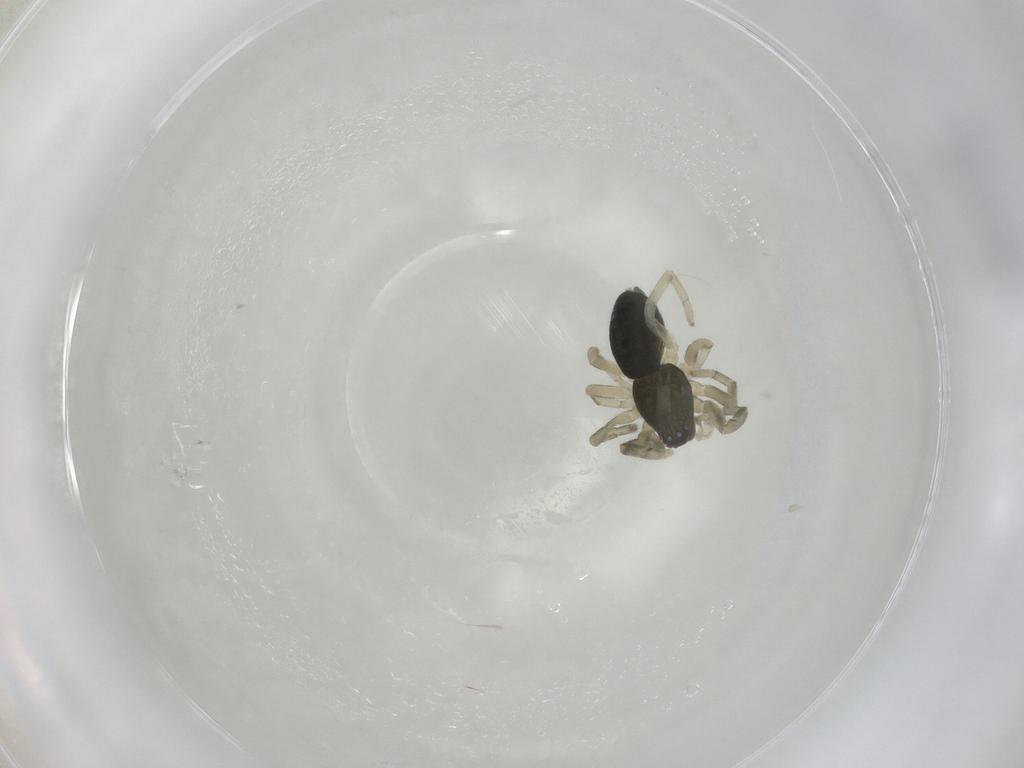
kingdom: Animalia
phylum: Arthropoda
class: Arachnida
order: Araneae
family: Trachelidae
